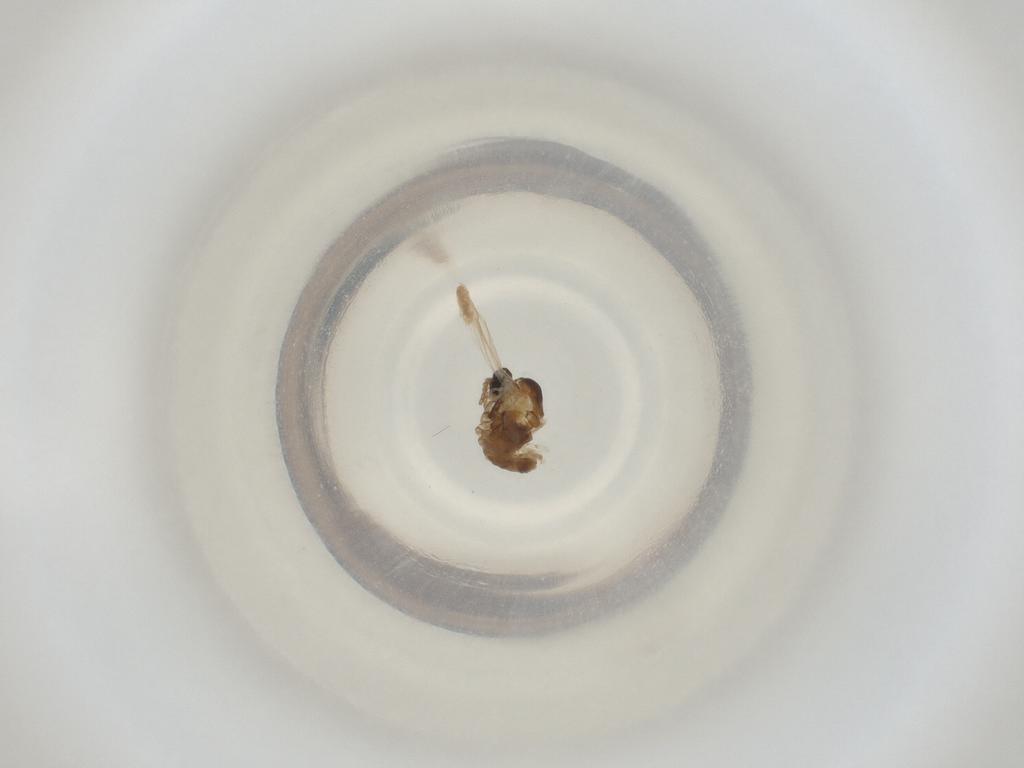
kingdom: Animalia
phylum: Arthropoda
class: Insecta
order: Diptera
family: Cecidomyiidae
